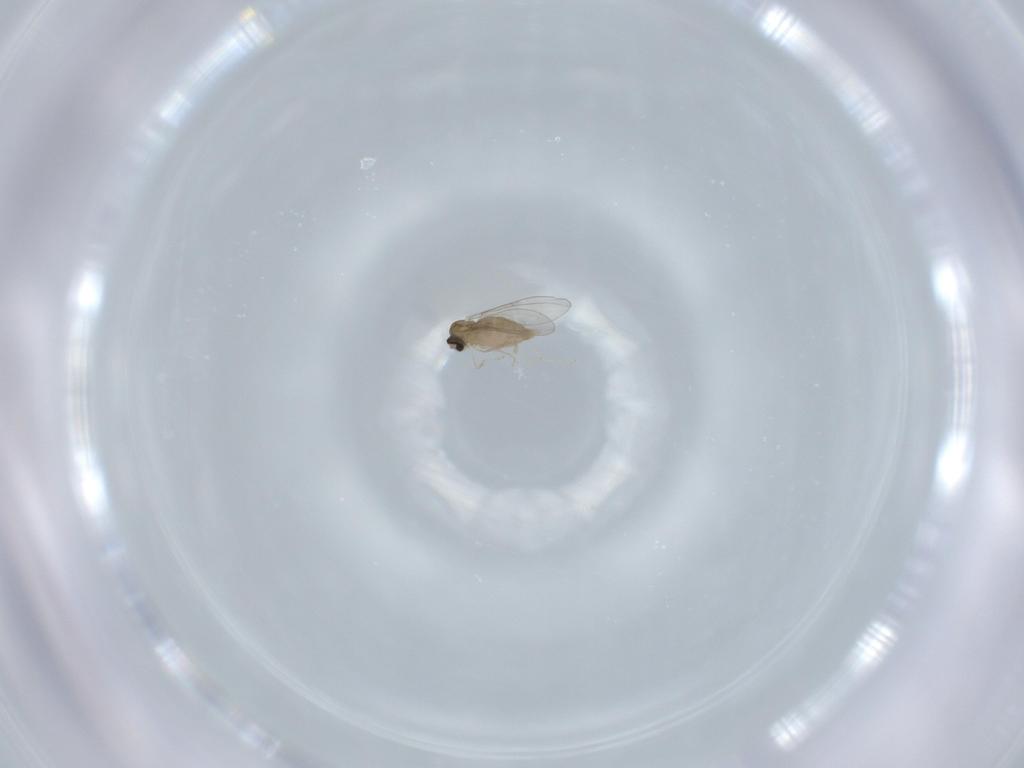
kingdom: Animalia
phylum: Arthropoda
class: Insecta
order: Diptera
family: Cecidomyiidae
